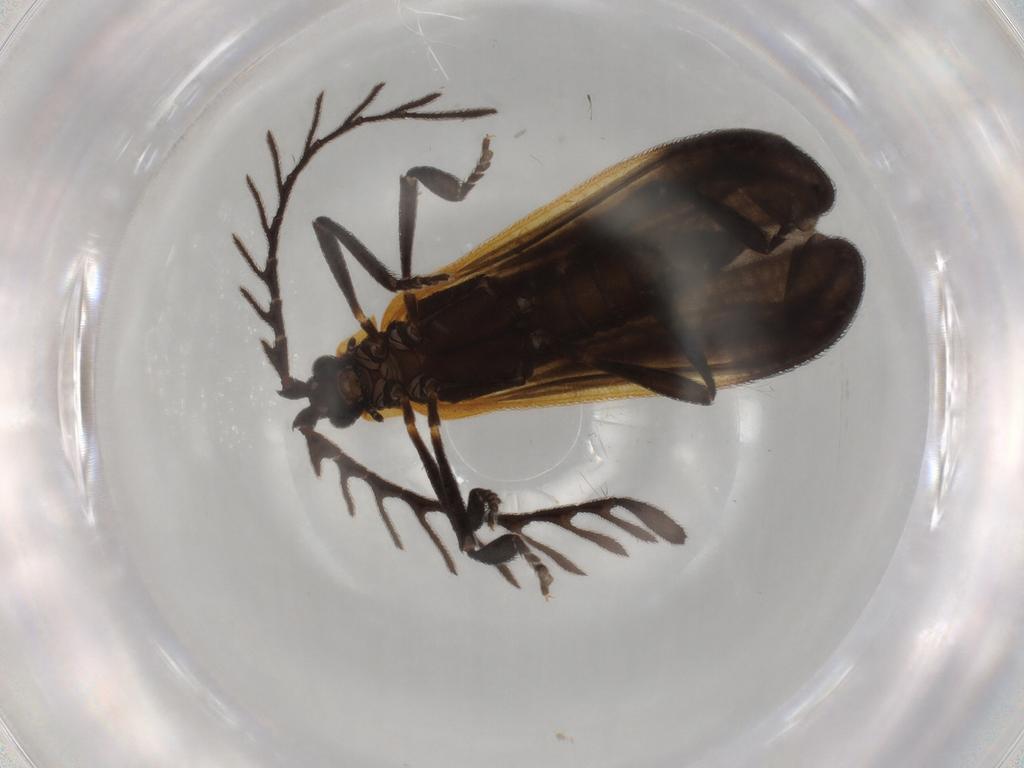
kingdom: Animalia
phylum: Arthropoda
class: Insecta
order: Coleoptera
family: Lycidae
